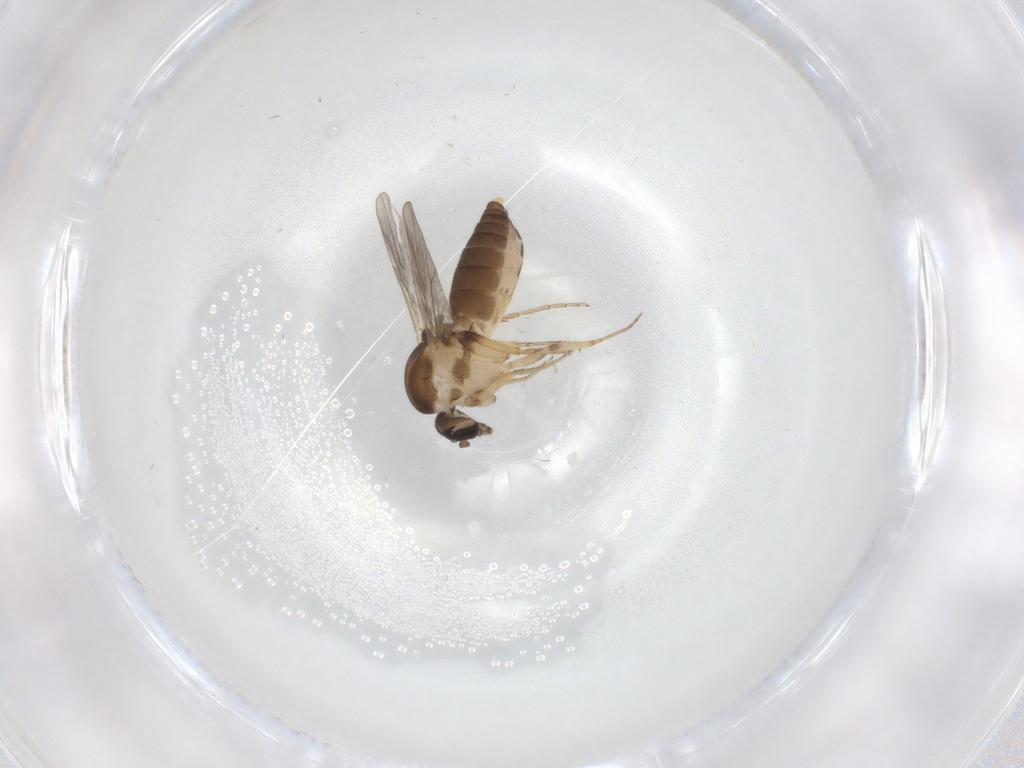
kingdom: Animalia
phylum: Arthropoda
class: Insecta
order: Diptera
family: Ceratopogonidae
